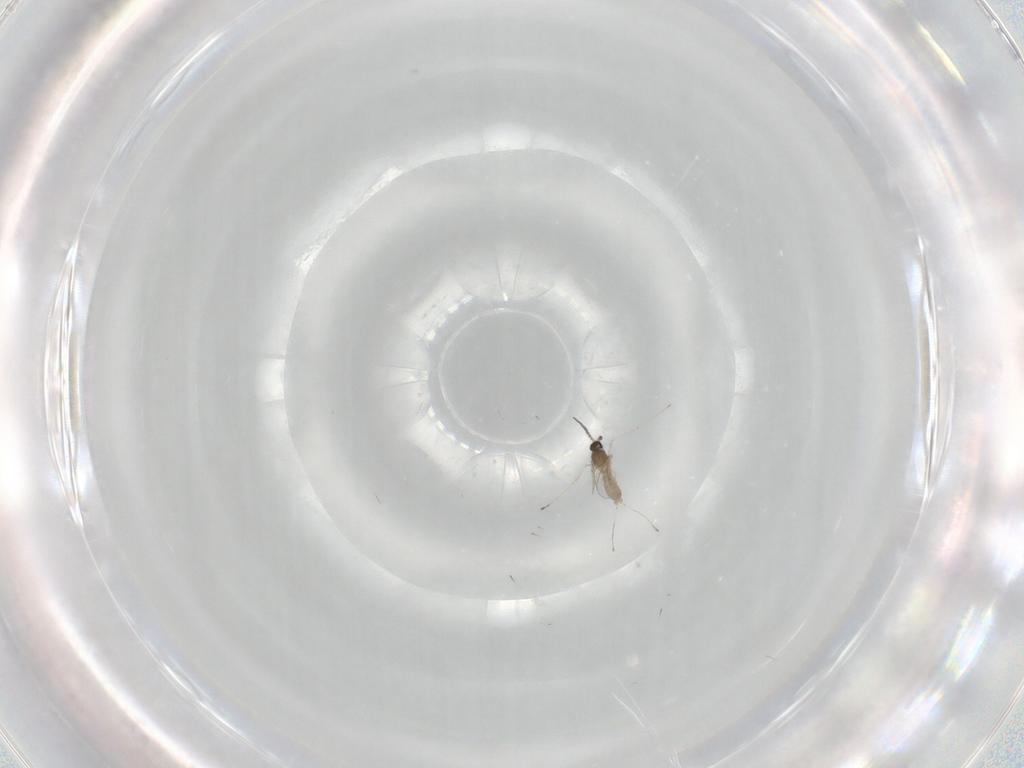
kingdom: Animalia
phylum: Arthropoda
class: Insecta
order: Diptera
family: Cecidomyiidae
